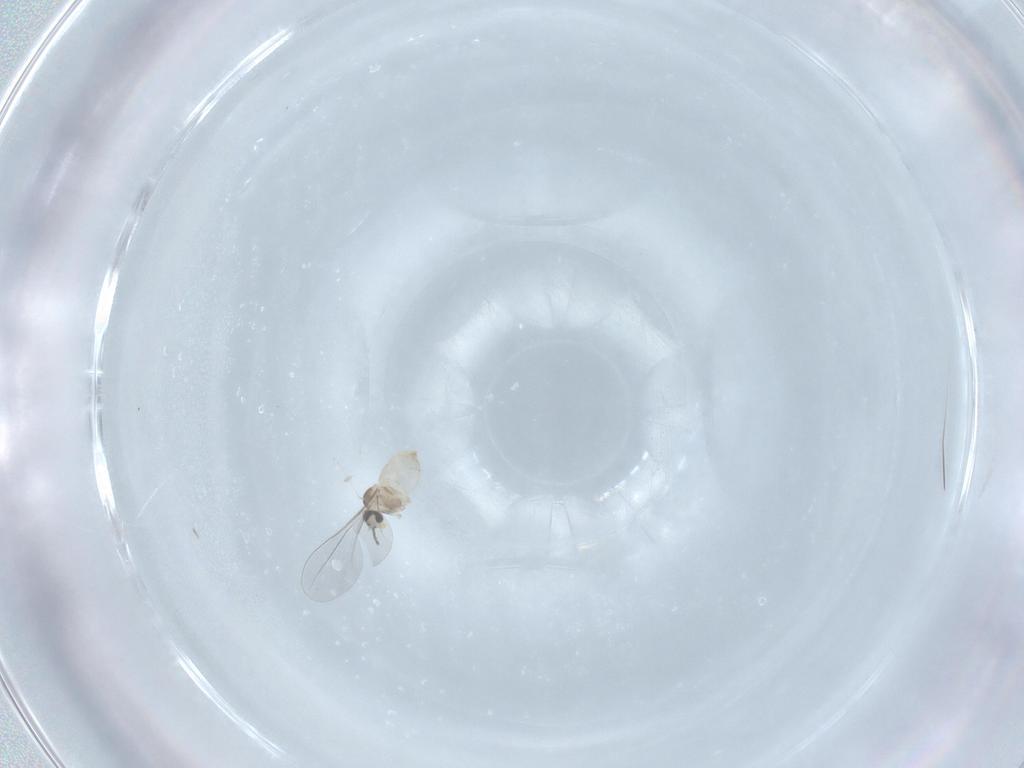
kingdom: Animalia
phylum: Arthropoda
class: Insecta
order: Diptera
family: Cecidomyiidae
